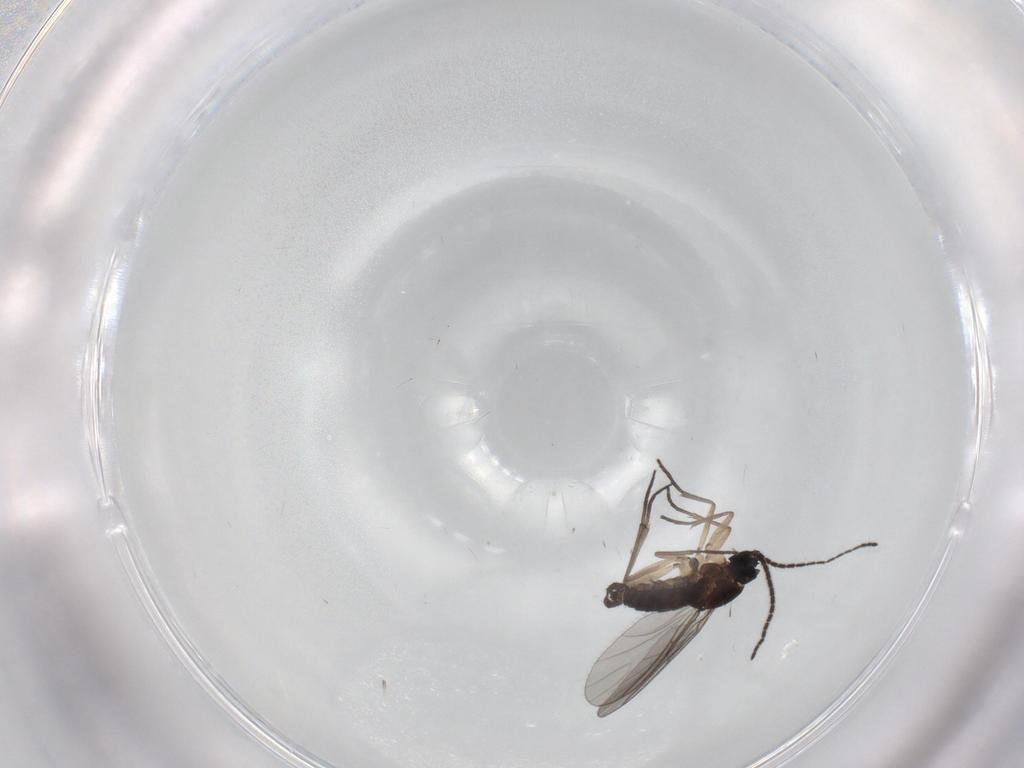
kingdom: Animalia
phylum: Arthropoda
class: Insecta
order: Diptera
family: Sciaridae
